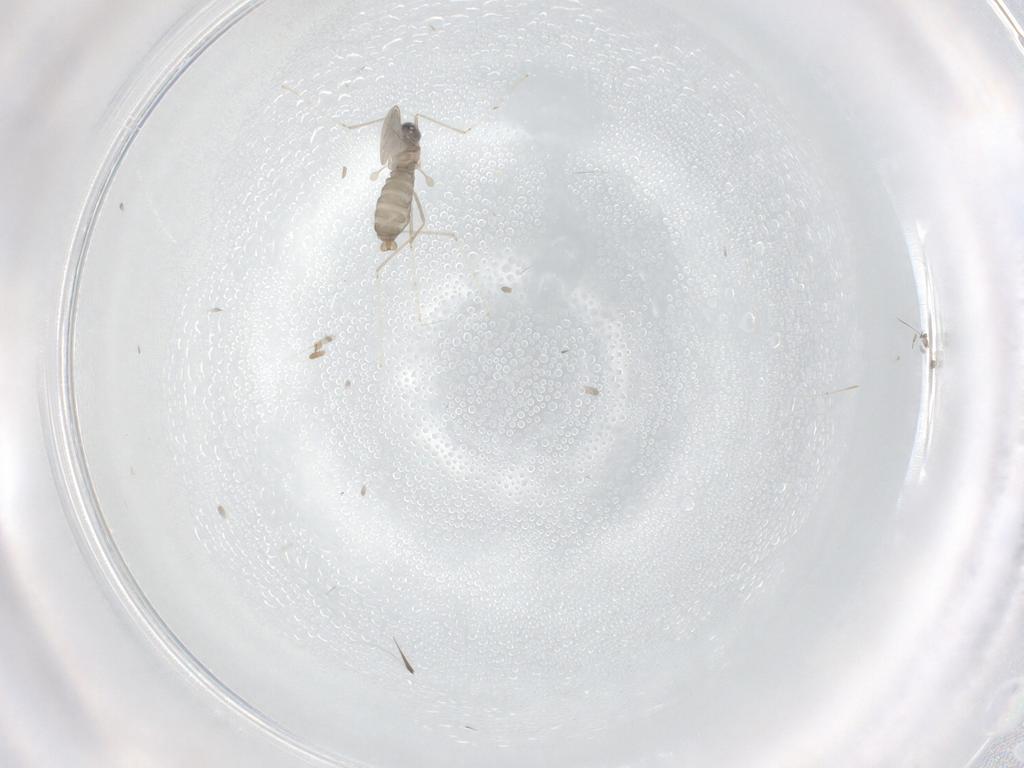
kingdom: Animalia
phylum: Arthropoda
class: Insecta
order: Diptera
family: Cecidomyiidae
